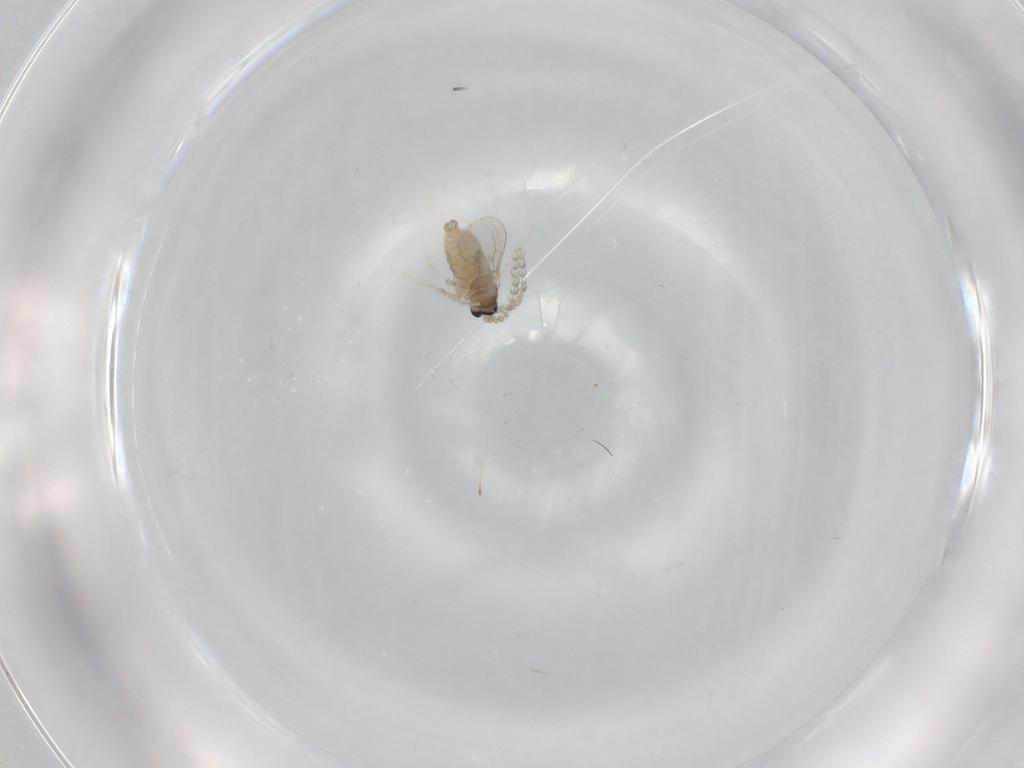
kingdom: Animalia
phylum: Arthropoda
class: Insecta
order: Diptera
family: Cecidomyiidae
